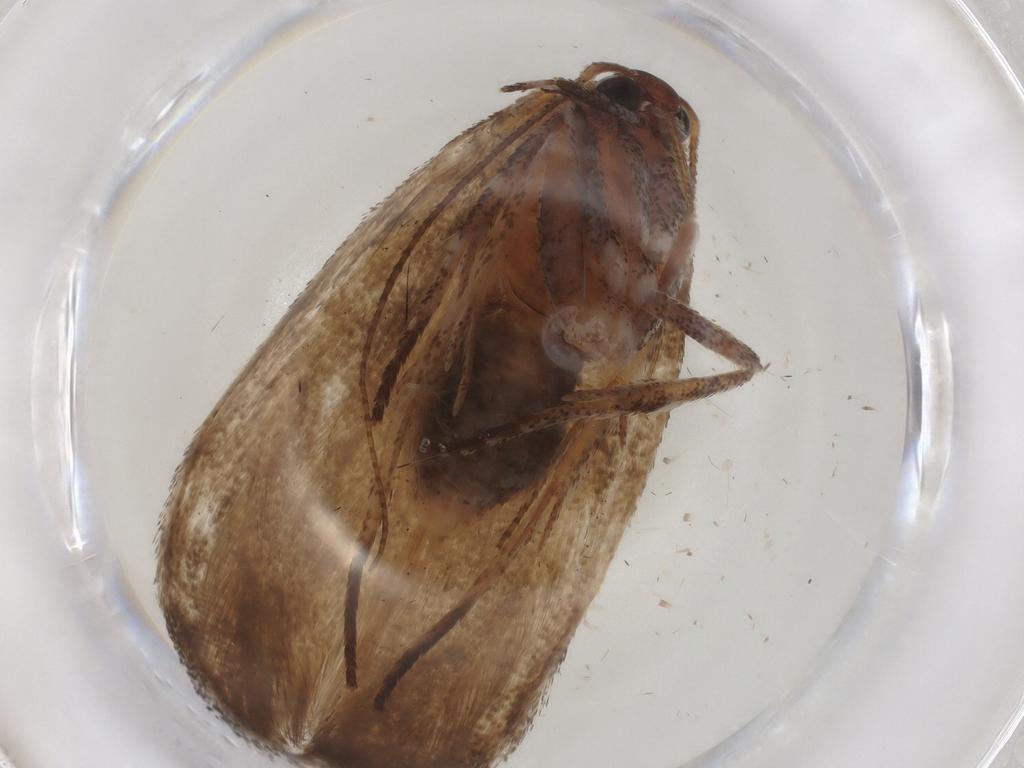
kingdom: Animalia
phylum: Arthropoda
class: Insecta
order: Lepidoptera
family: Cosmopterigidae
